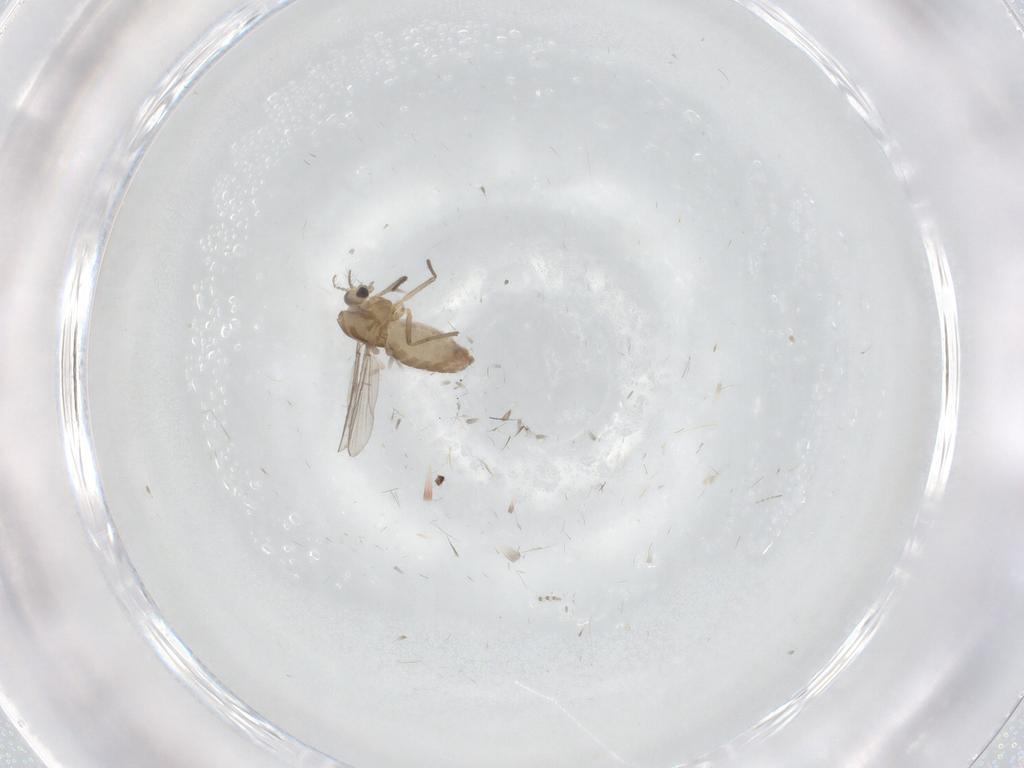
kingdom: Animalia
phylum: Arthropoda
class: Insecta
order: Diptera
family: Chironomidae
